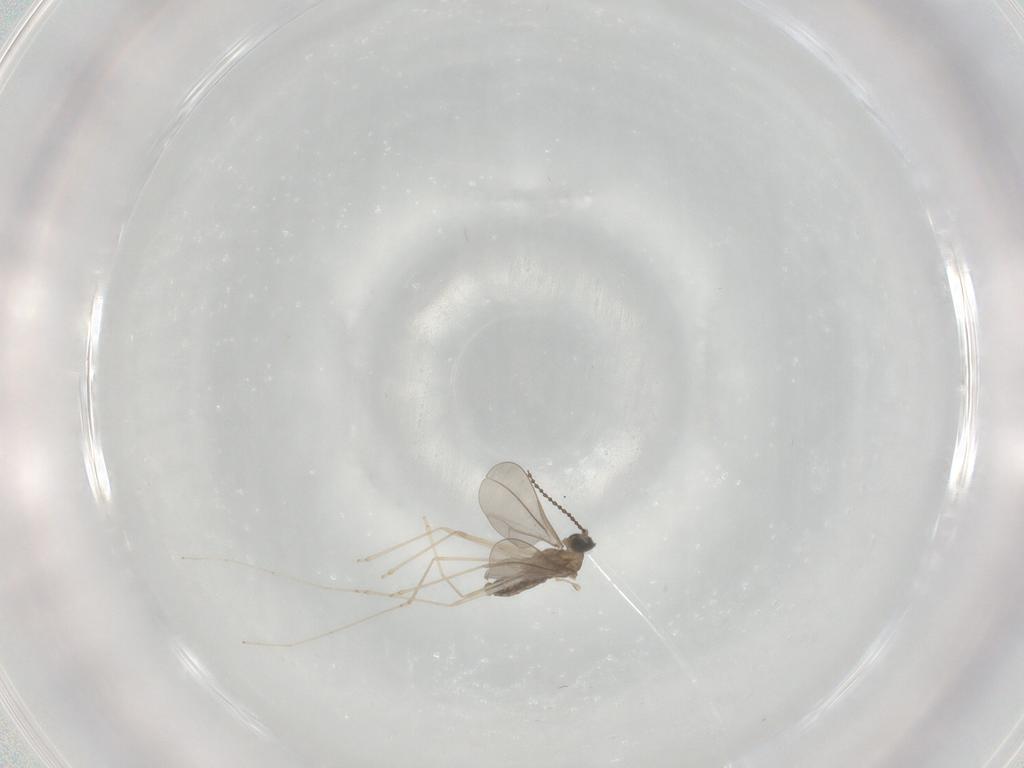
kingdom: Animalia
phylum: Arthropoda
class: Insecta
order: Diptera
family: Cecidomyiidae
